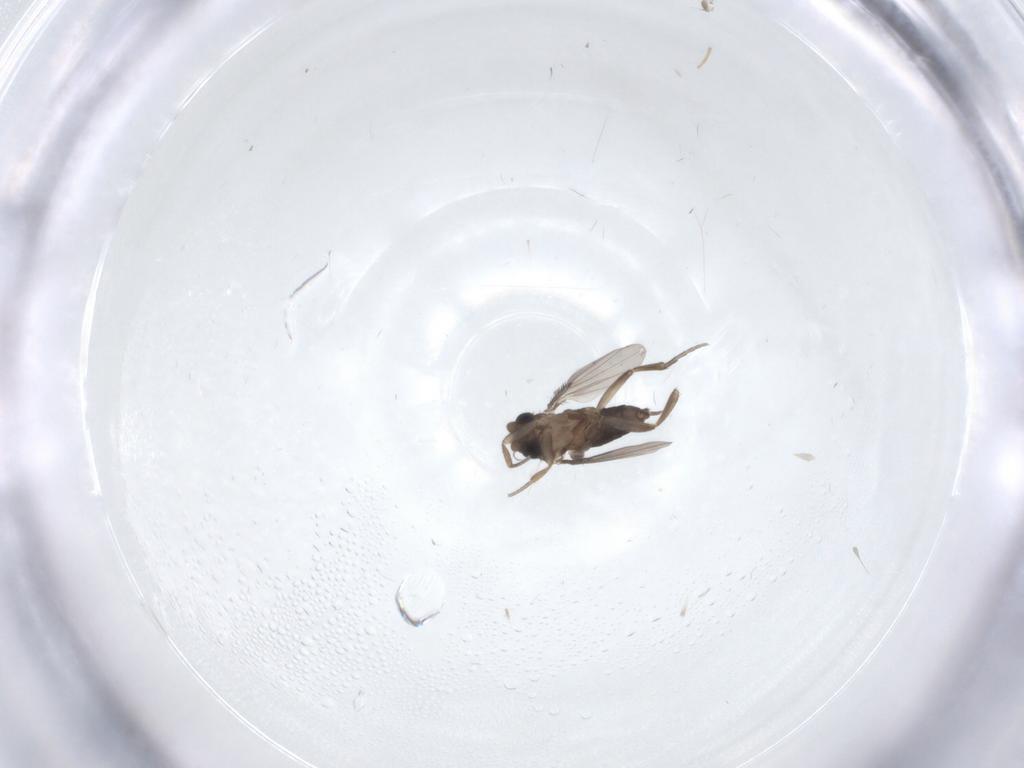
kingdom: Animalia
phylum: Arthropoda
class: Insecta
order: Diptera
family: Phoridae
